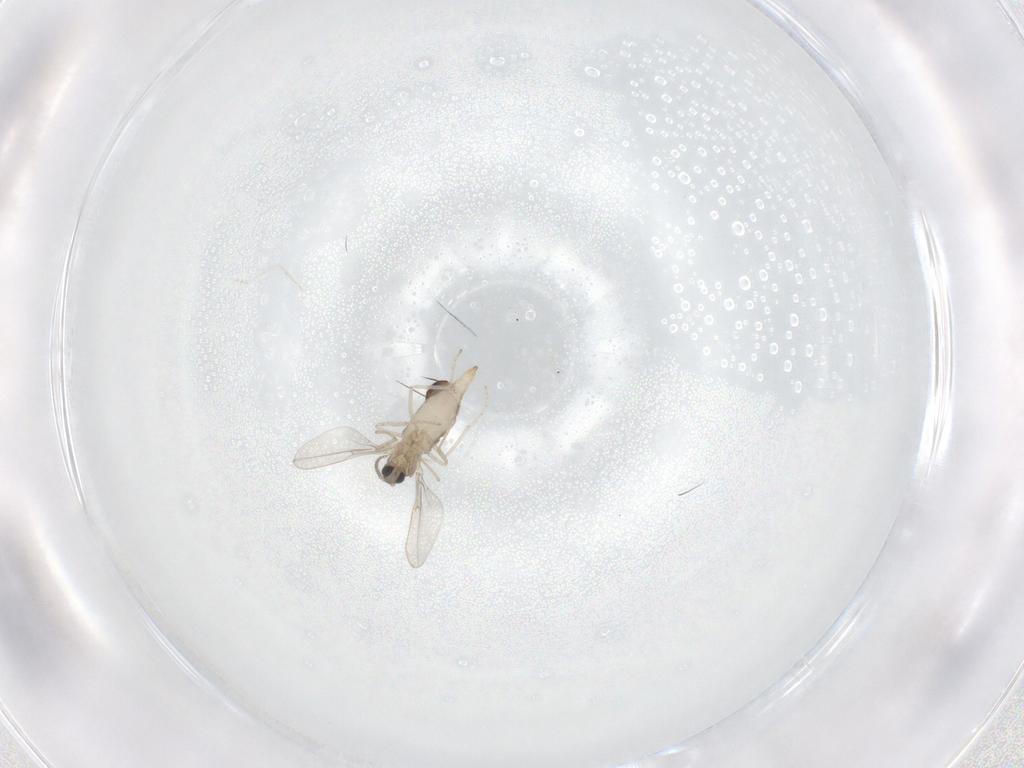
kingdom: Animalia
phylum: Arthropoda
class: Insecta
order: Diptera
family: Cecidomyiidae
